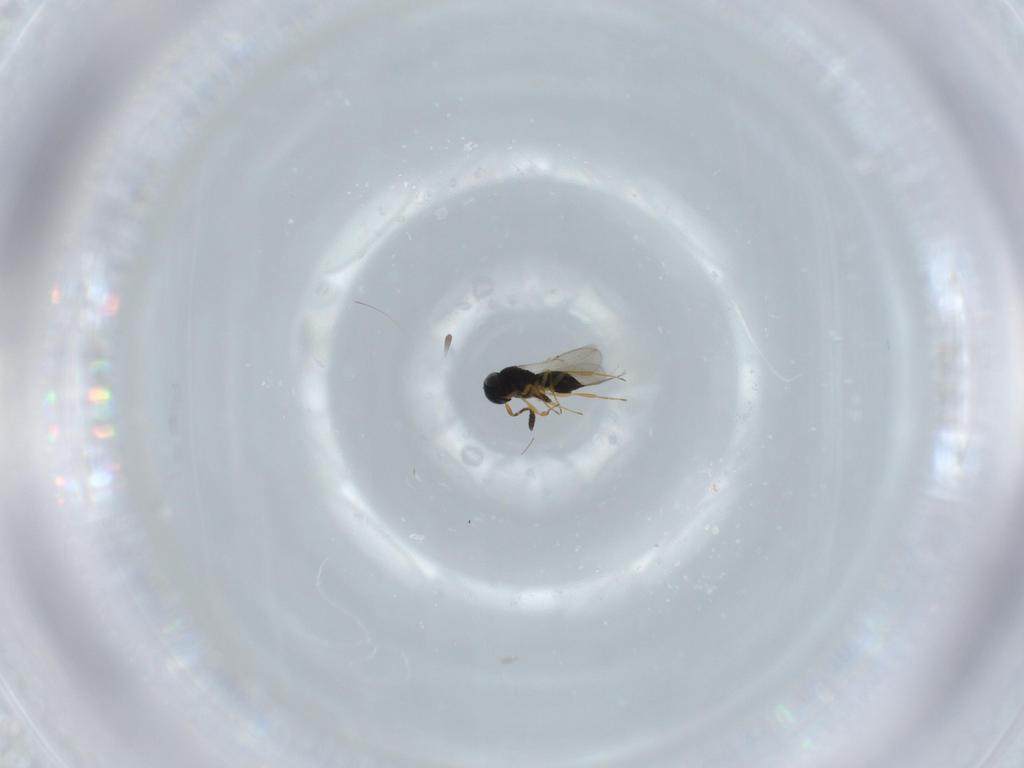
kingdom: Animalia
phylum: Arthropoda
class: Insecta
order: Hymenoptera
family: Scelionidae
